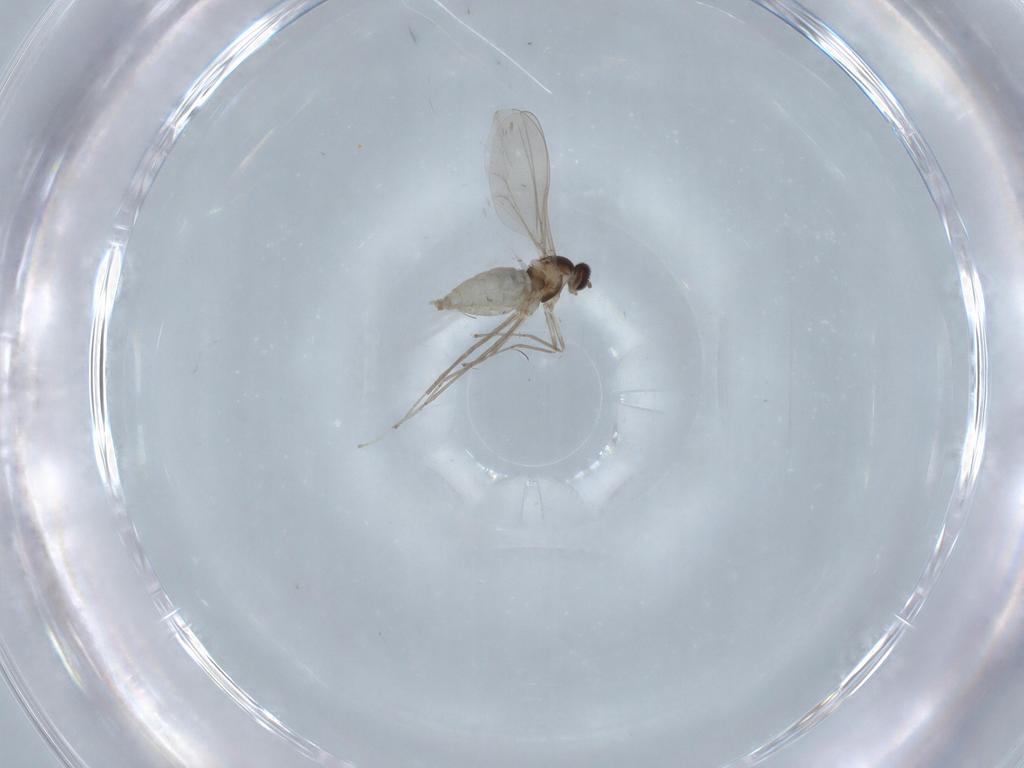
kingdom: Animalia
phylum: Arthropoda
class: Insecta
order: Diptera
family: Cecidomyiidae
